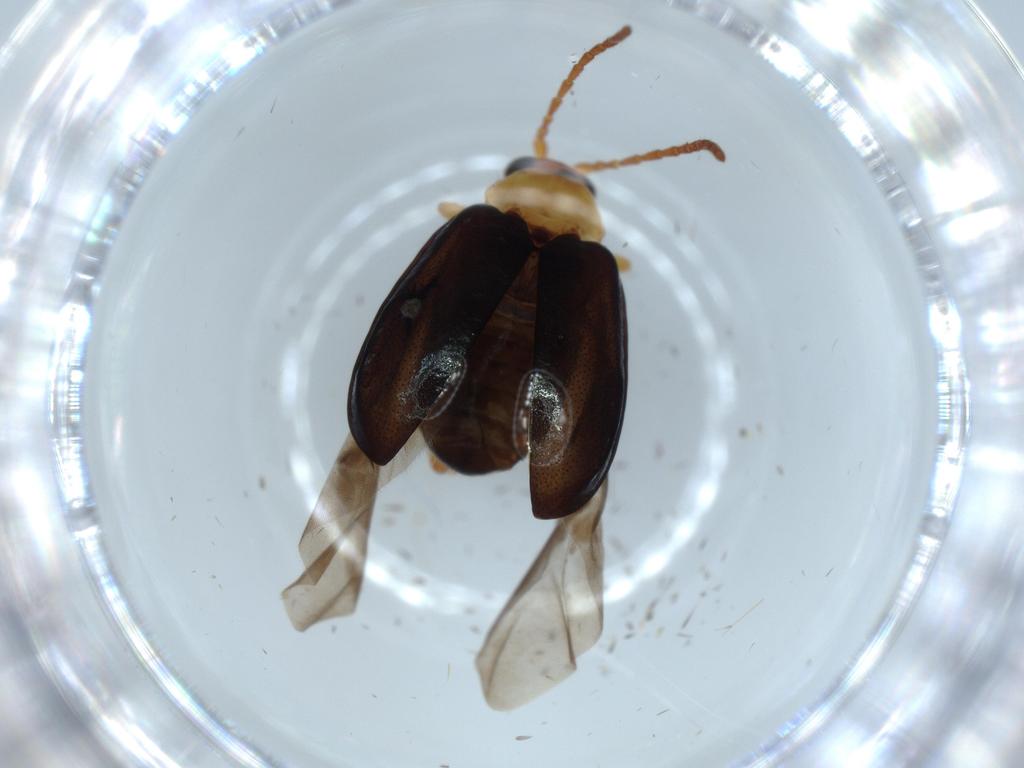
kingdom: Animalia
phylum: Arthropoda
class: Insecta
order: Coleoptera
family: Chrysomelidae
